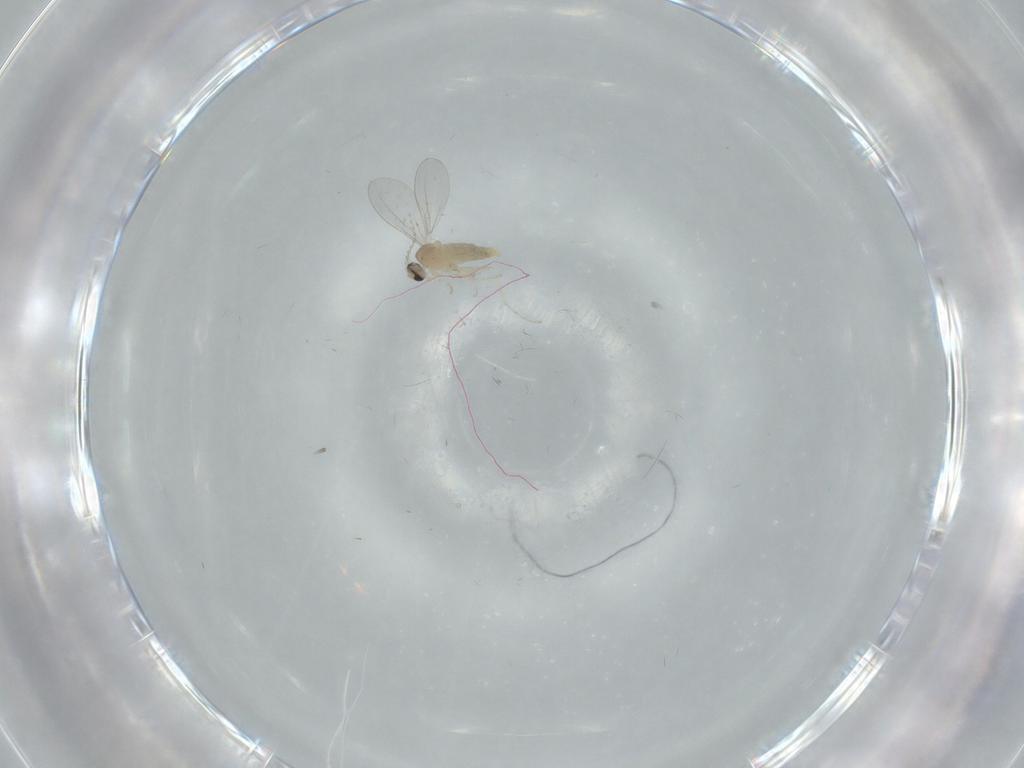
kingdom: Animalia
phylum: Arthropoda
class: Insecta
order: Diptera
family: Cecidomyiidae
